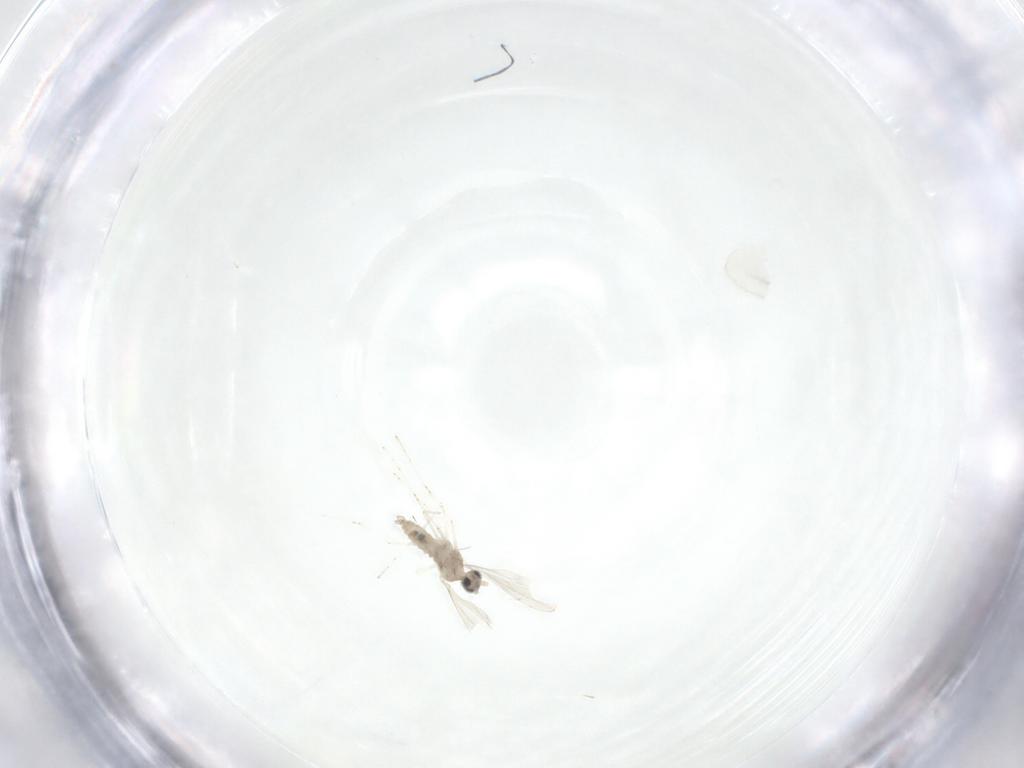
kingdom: Animalia
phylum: Arthropoda
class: Insecta
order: Diptera
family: Cecidomyiidae
